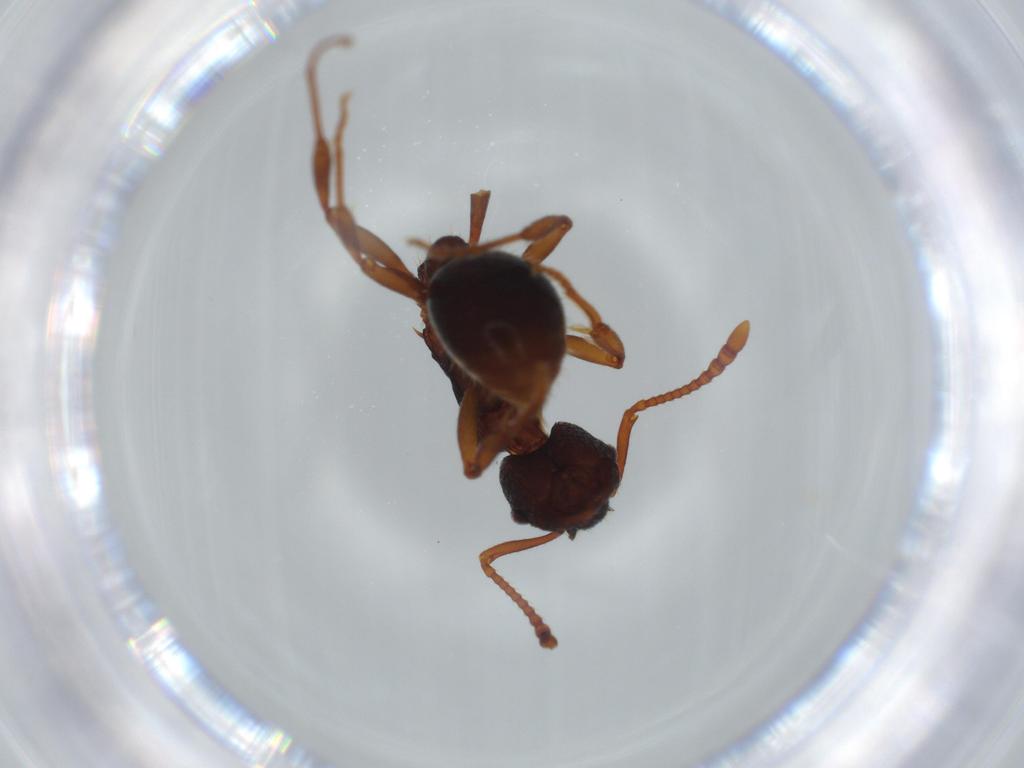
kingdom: Animalia
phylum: Arthropoda
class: Insecta
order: Hymenoptera
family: Formicidae
